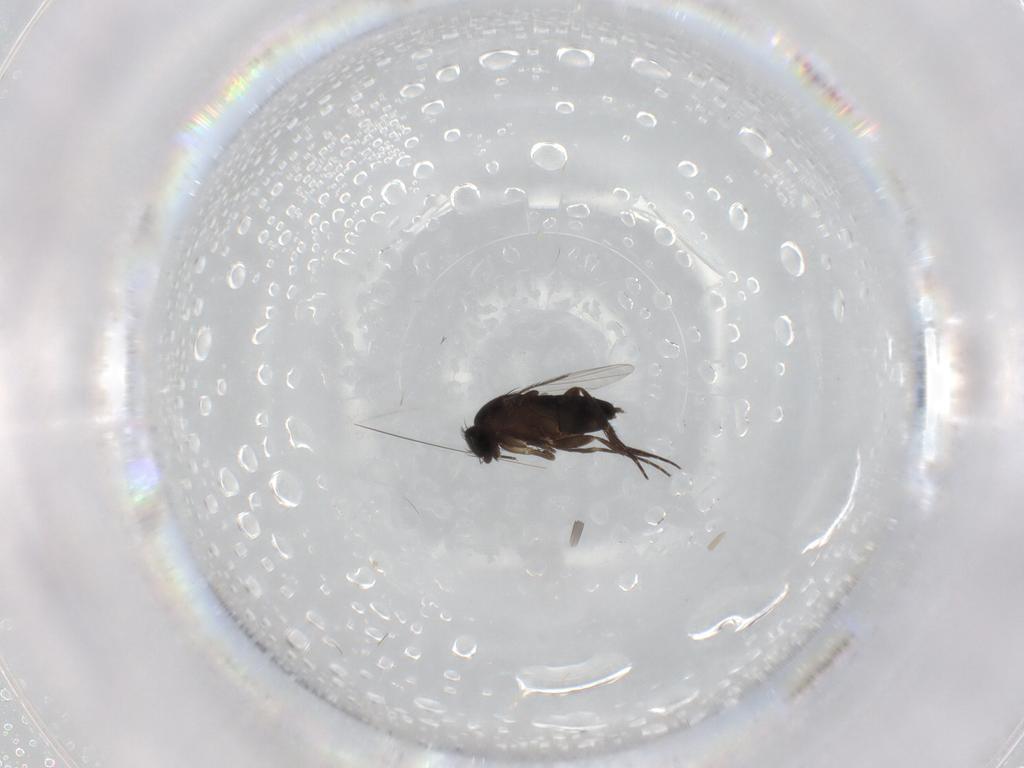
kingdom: Animalia
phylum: Arthropoda
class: Insecta
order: Diptera
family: Phoridae
